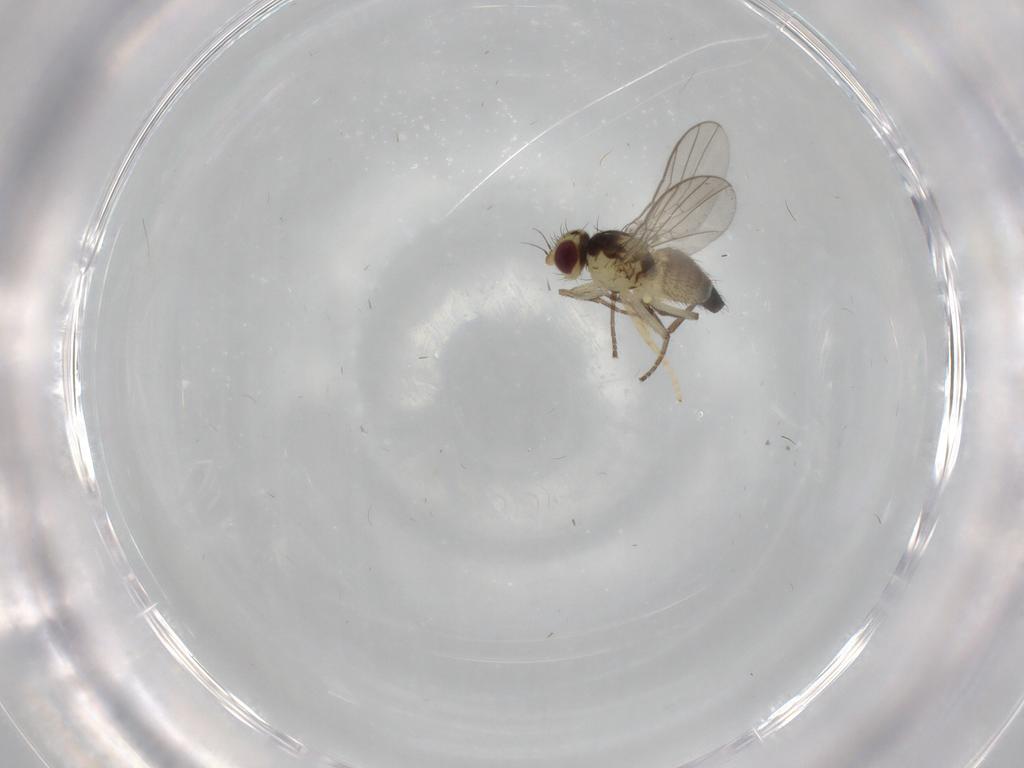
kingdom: Animalia
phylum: Arthropoda
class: Insecta
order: Diptera
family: Agromyzidae
